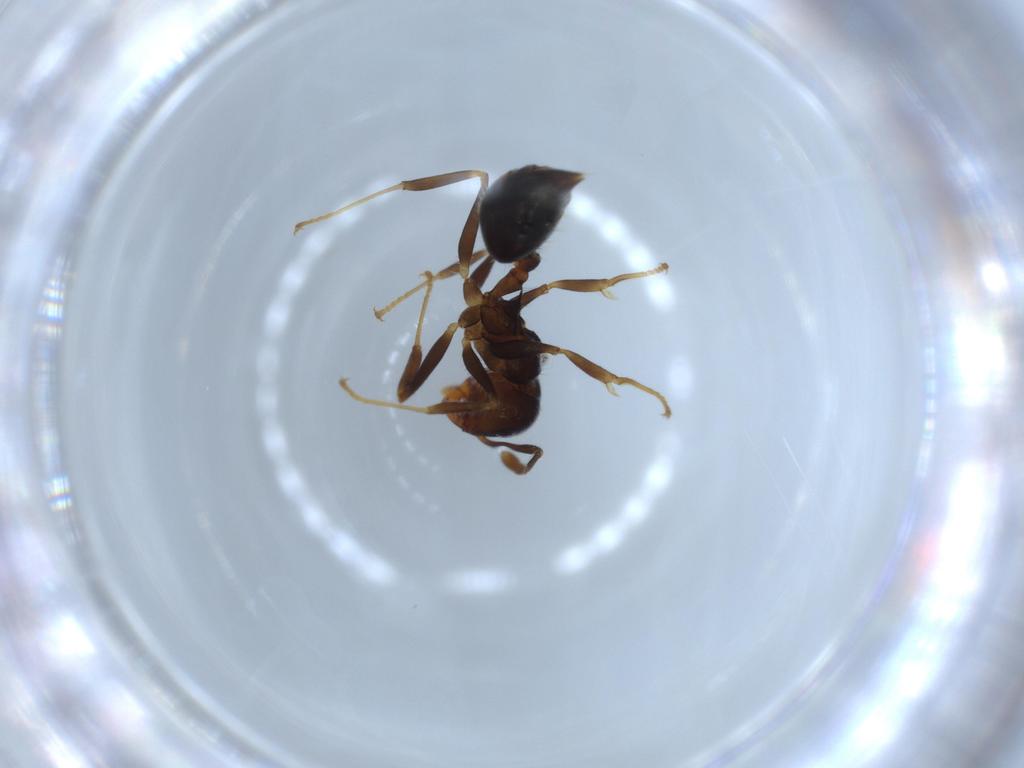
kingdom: Animalia
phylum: Arthropoda
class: Insecta
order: Hymenoptera
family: Formicidae
